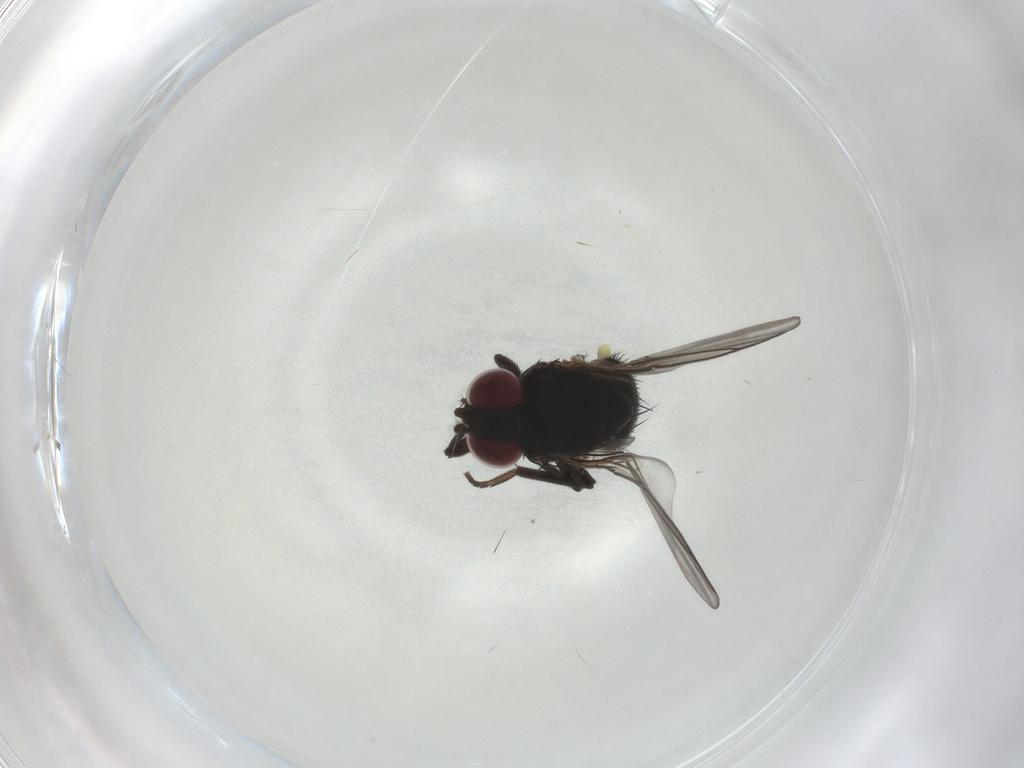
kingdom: Animalia
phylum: Arthropoda
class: Insecta
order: Diptera
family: Agromyzidae
